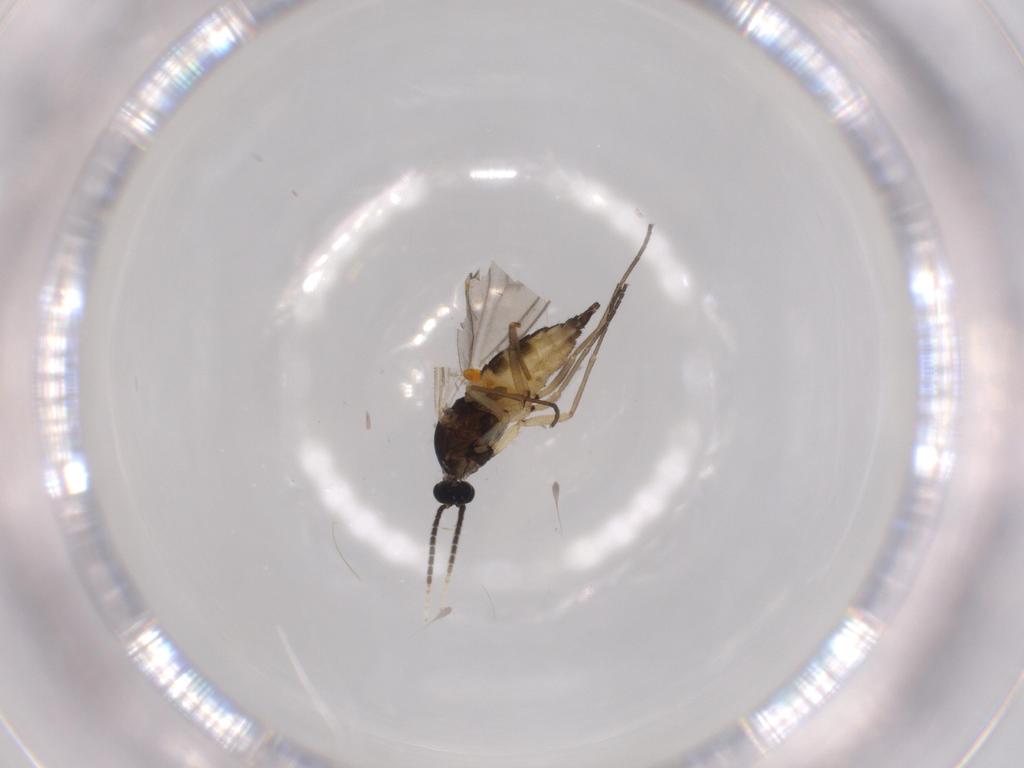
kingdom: Animalia
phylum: Arthropoda
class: Insecta
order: Diptera
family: Sciaridae
